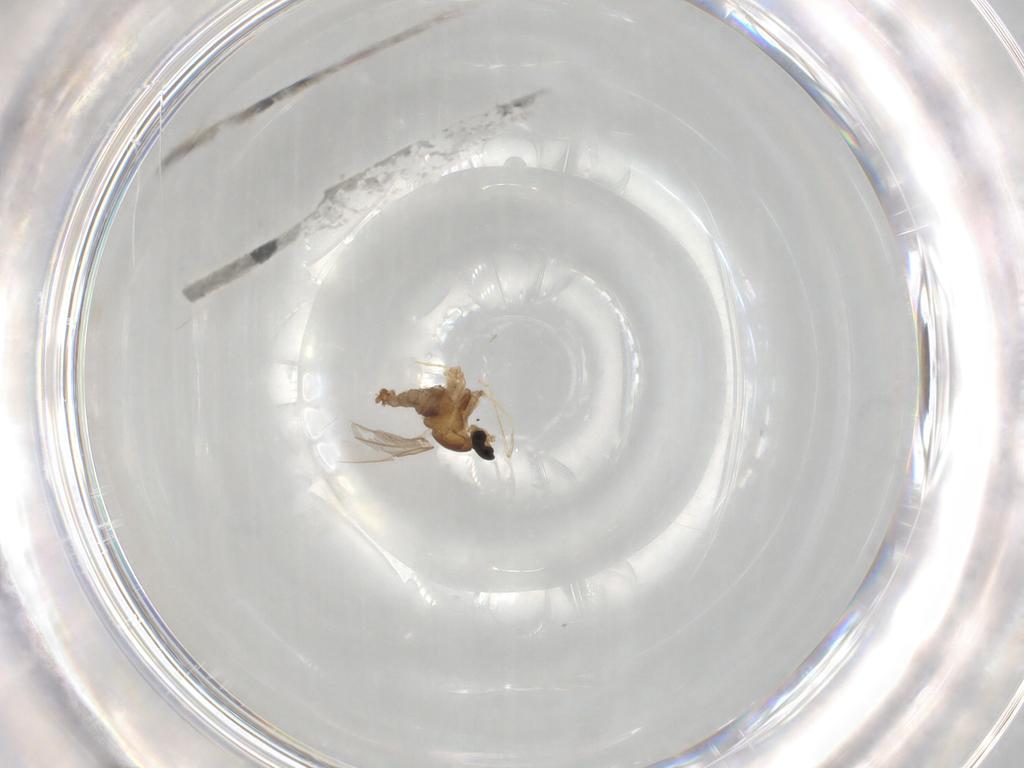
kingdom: Animalia
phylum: Arthropoda
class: Insecta
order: Diptera
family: Cecidomyiidae
